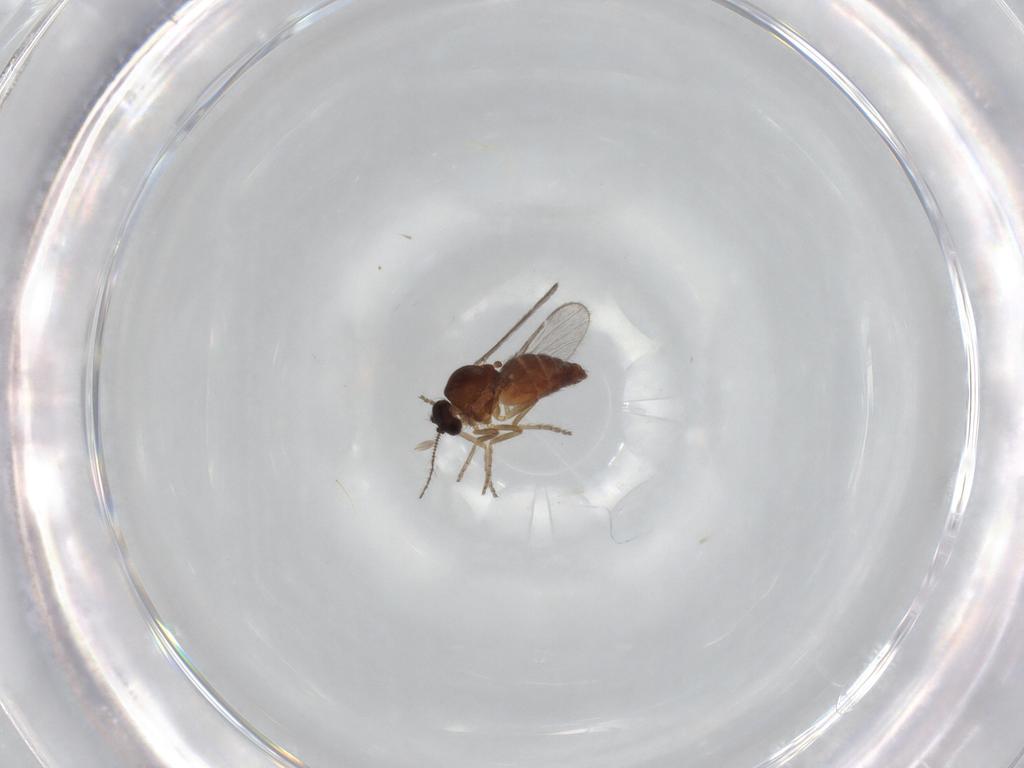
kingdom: Animalia
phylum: Arthropoda
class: Insecta
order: Diptera
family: Ceratopogonidae
